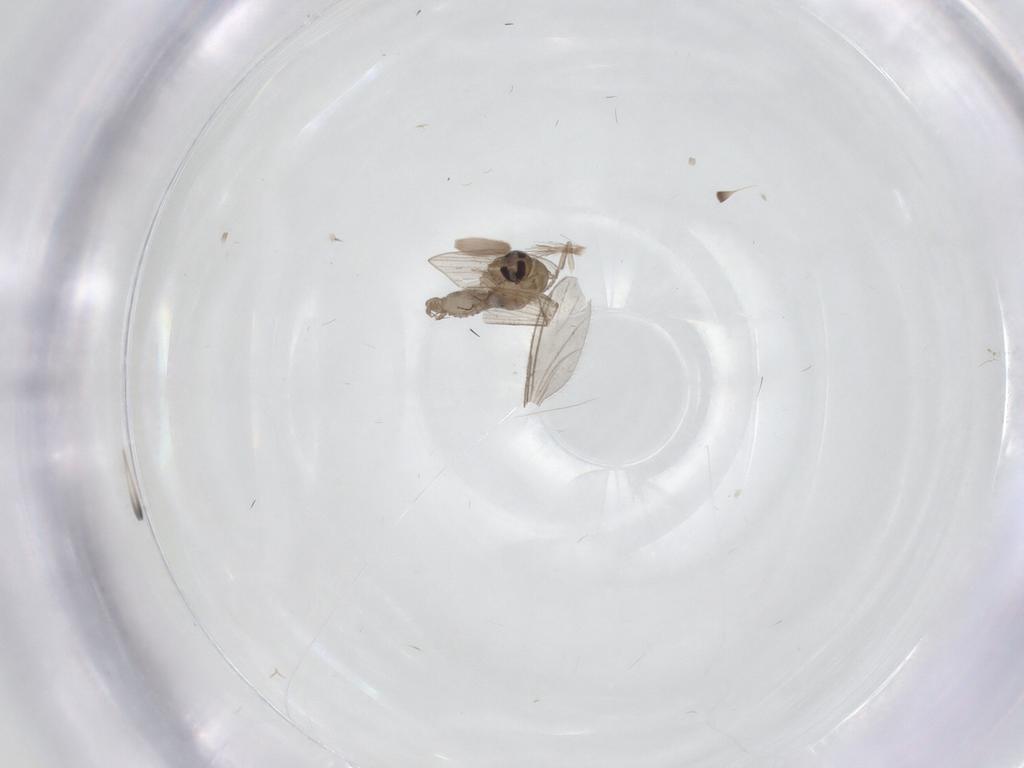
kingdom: Animalia
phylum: Arthropoda
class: Insecta
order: Diptera
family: Psychodidae
